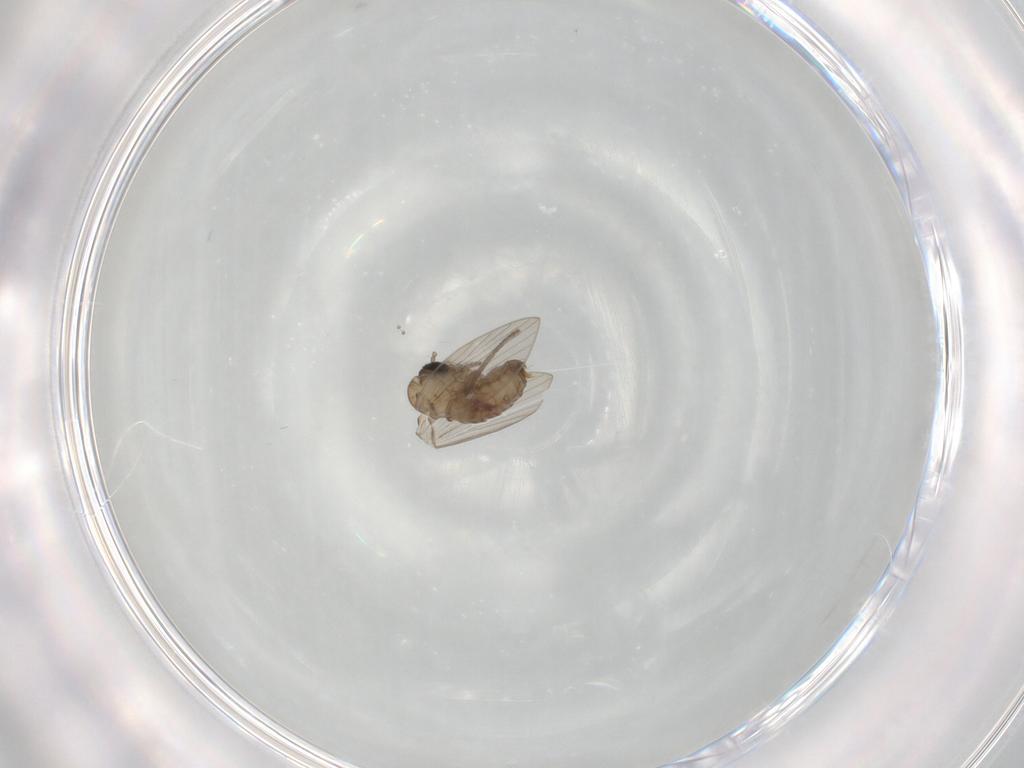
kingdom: Animalia
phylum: Arthropoda
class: Insecta
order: Diptera
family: Psychodidae
